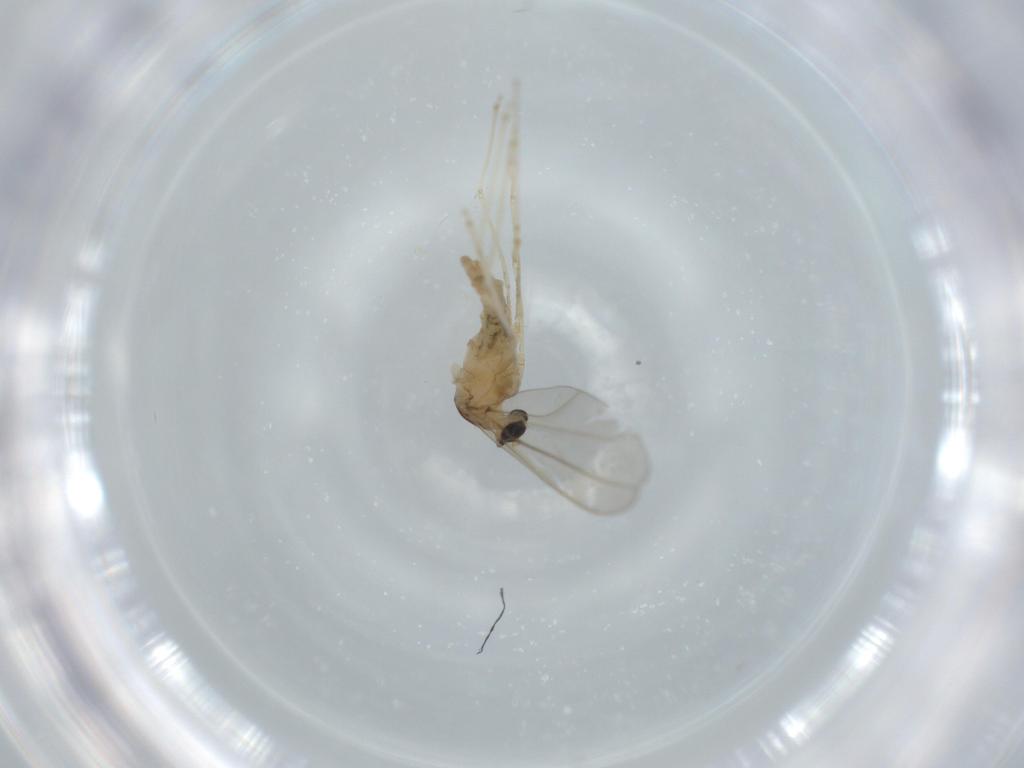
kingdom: Animalia
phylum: Arthropoda
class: Insecta
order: Diptera
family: Cecidomyiidae
